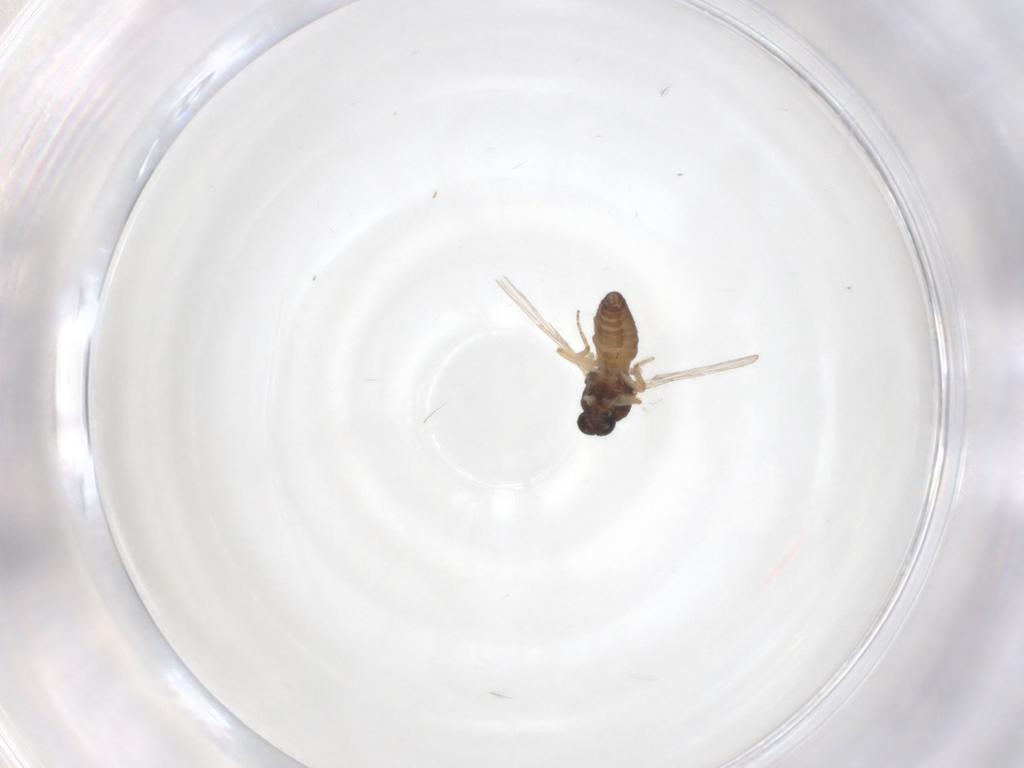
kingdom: Animalia
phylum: Arthropoda
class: Insecta
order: Diptera
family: Ceratopogonidae
